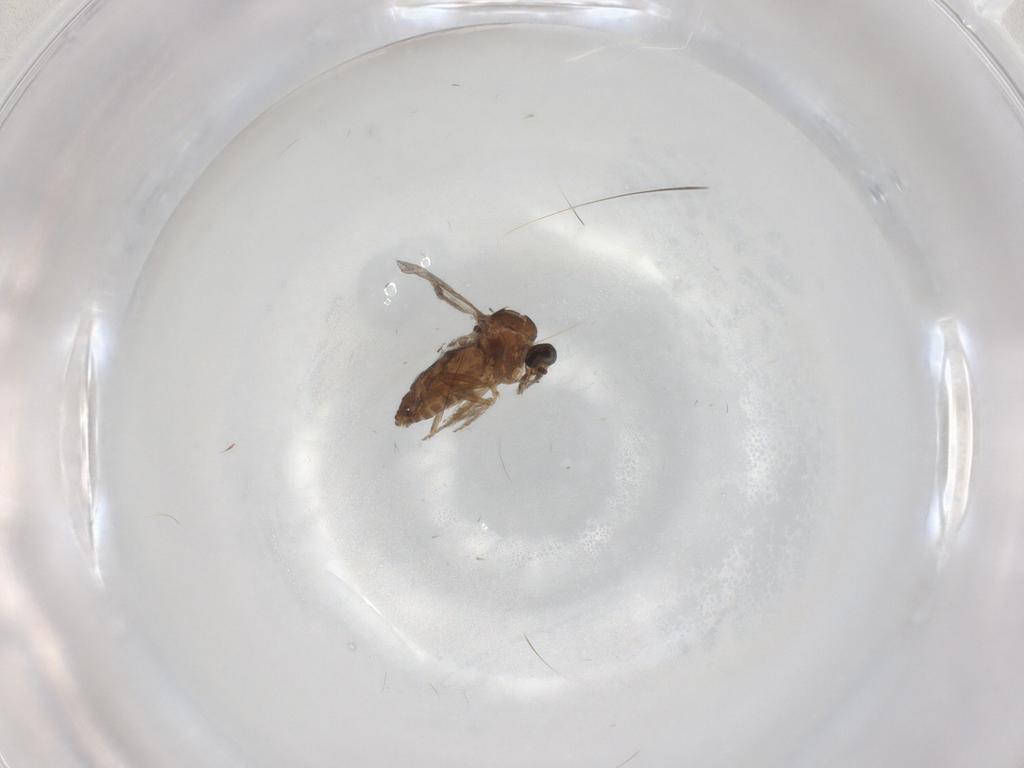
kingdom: Animalia
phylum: Arthropoda
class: Insecta
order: Diptera
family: Ceratopogonidae
